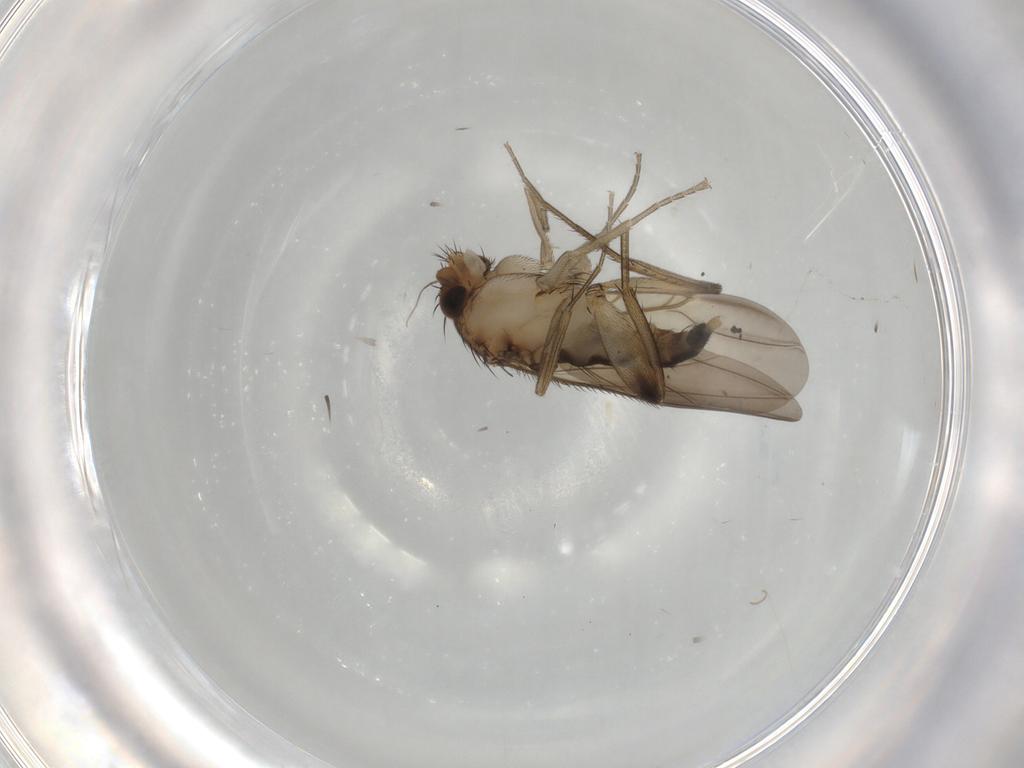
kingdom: Animalia
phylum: Arthropoda
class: Insecta
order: Diptera
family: Phoridae
